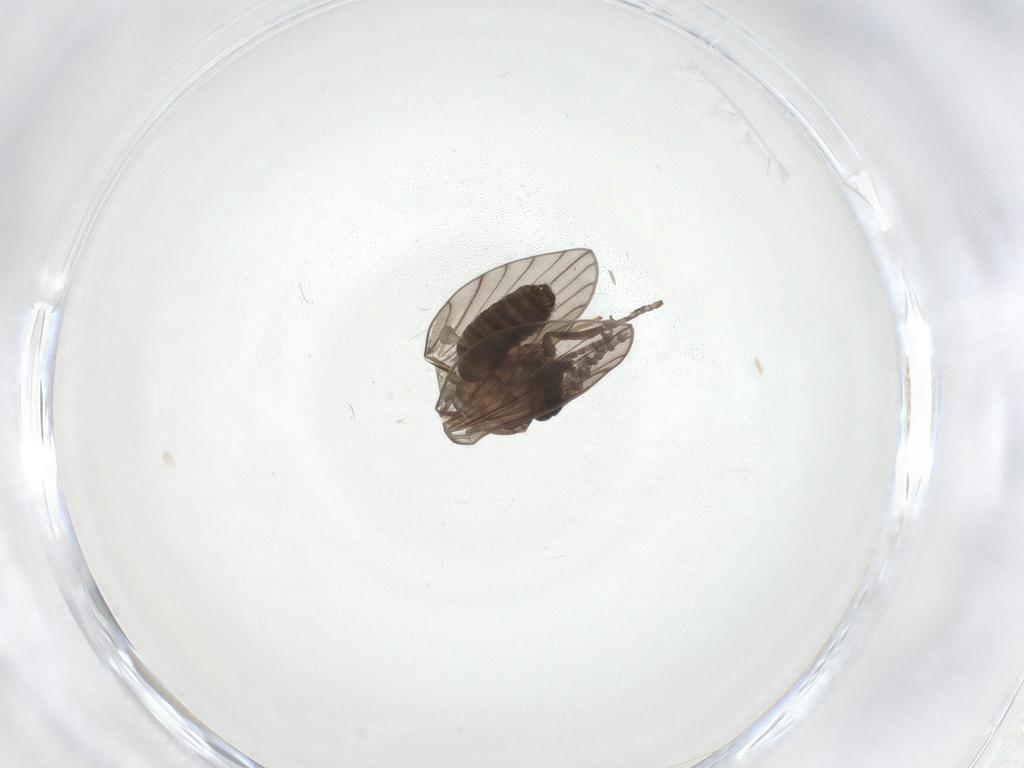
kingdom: Animalia
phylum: Arthropoda
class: Insecta
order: Diptera
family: Psychodidae
